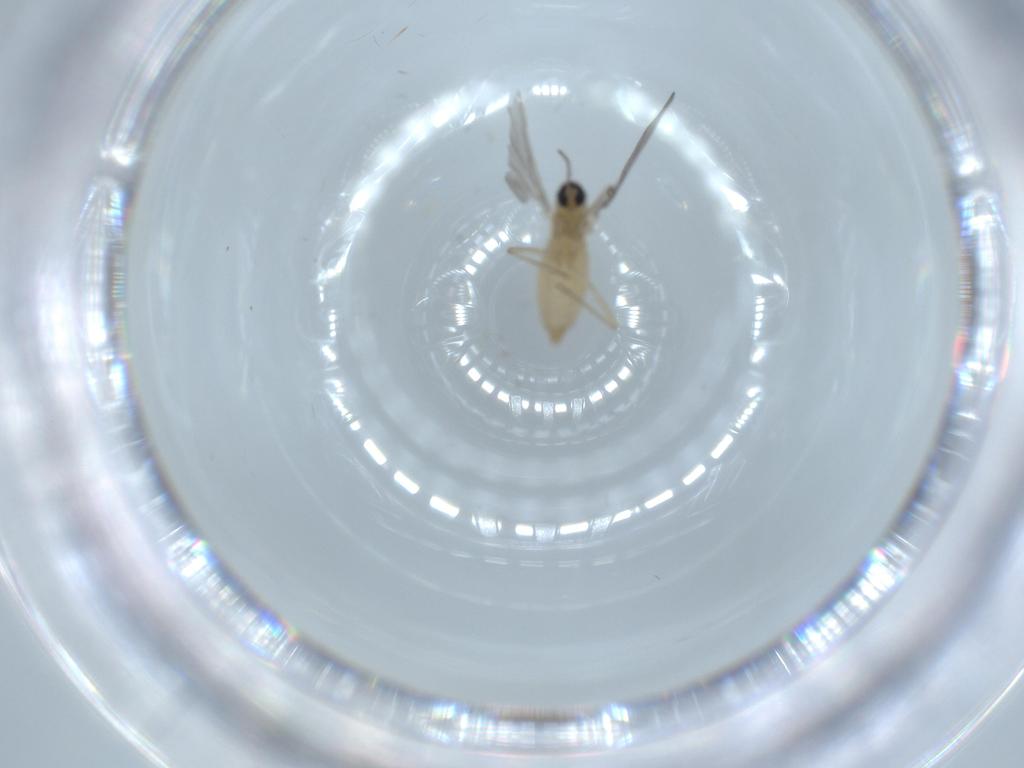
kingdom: Animalia
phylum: Arthropoda
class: Insecta
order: Diptera
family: Cecidomyiidae
